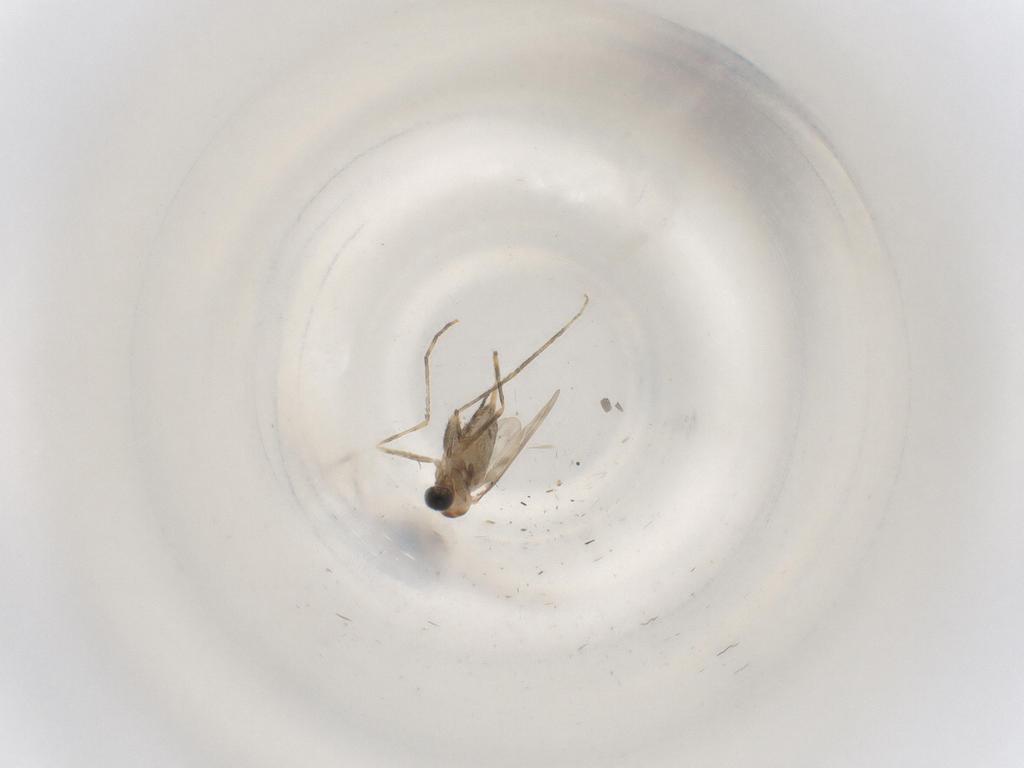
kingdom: Animalia
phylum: Arthropoda
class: Insecta
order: Diptera
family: Cecidomyiidae
